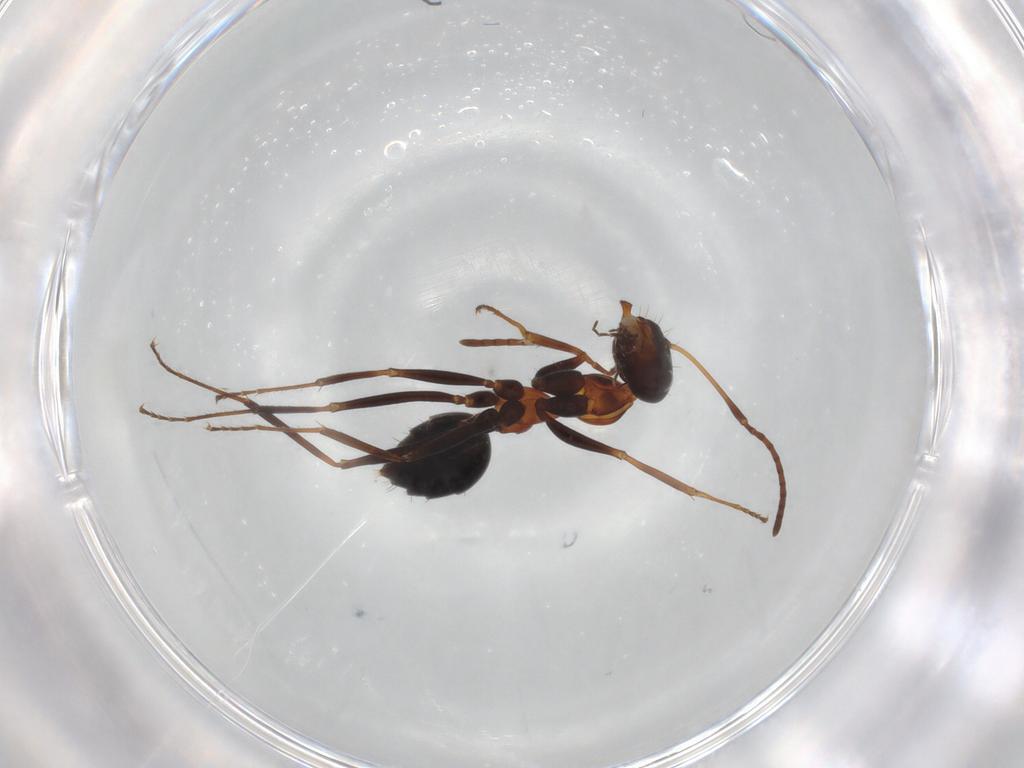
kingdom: Animalia
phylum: Arthropoda
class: Insecta
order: Hymenoptera
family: Formicidae
